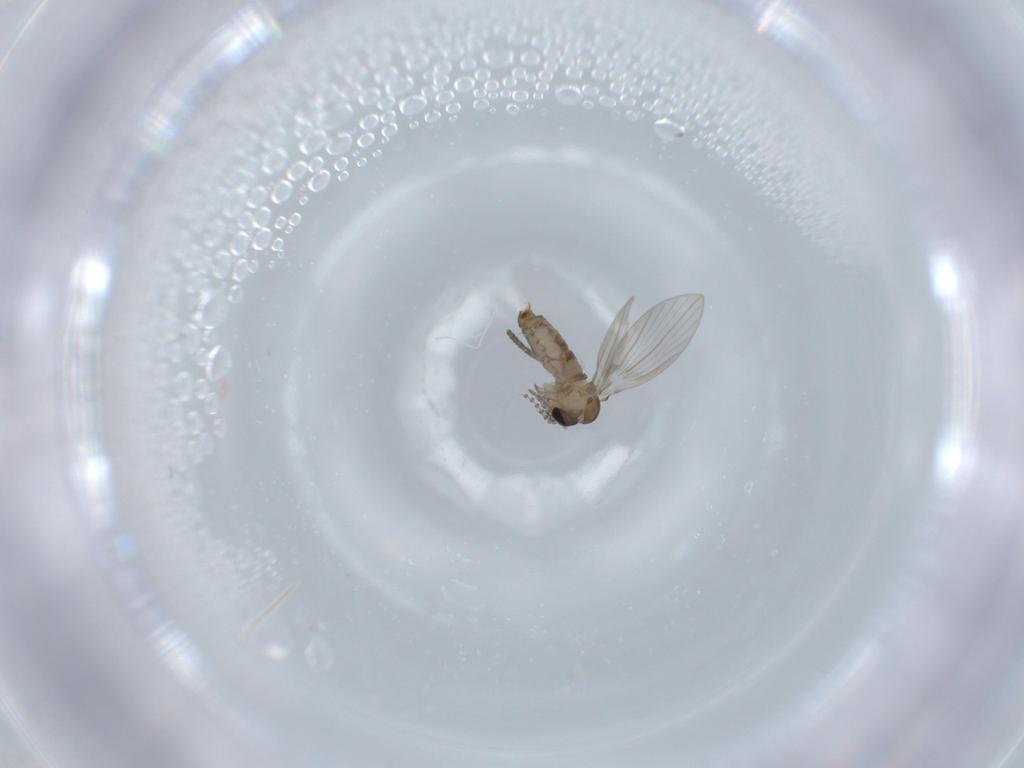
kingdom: Animalia
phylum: Arthropoda
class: Insecta
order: Diptera
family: Psychodidae
